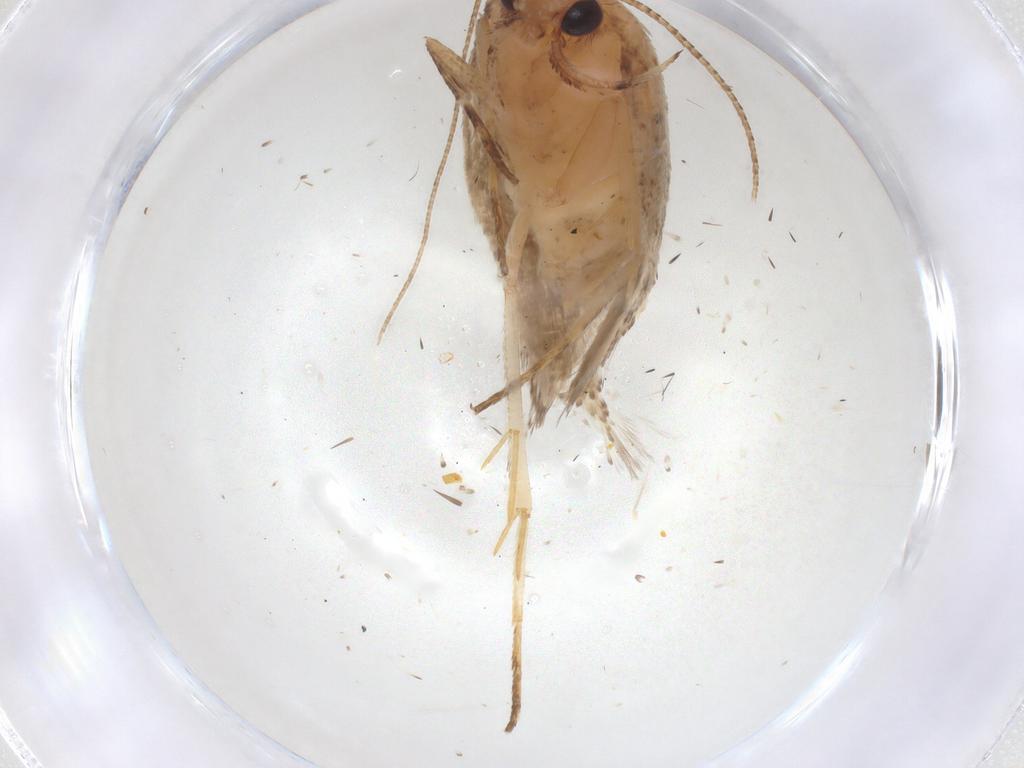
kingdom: Animalia
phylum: Arthropoda
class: Insecta
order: Lepidoptera
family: Gelechiidae
